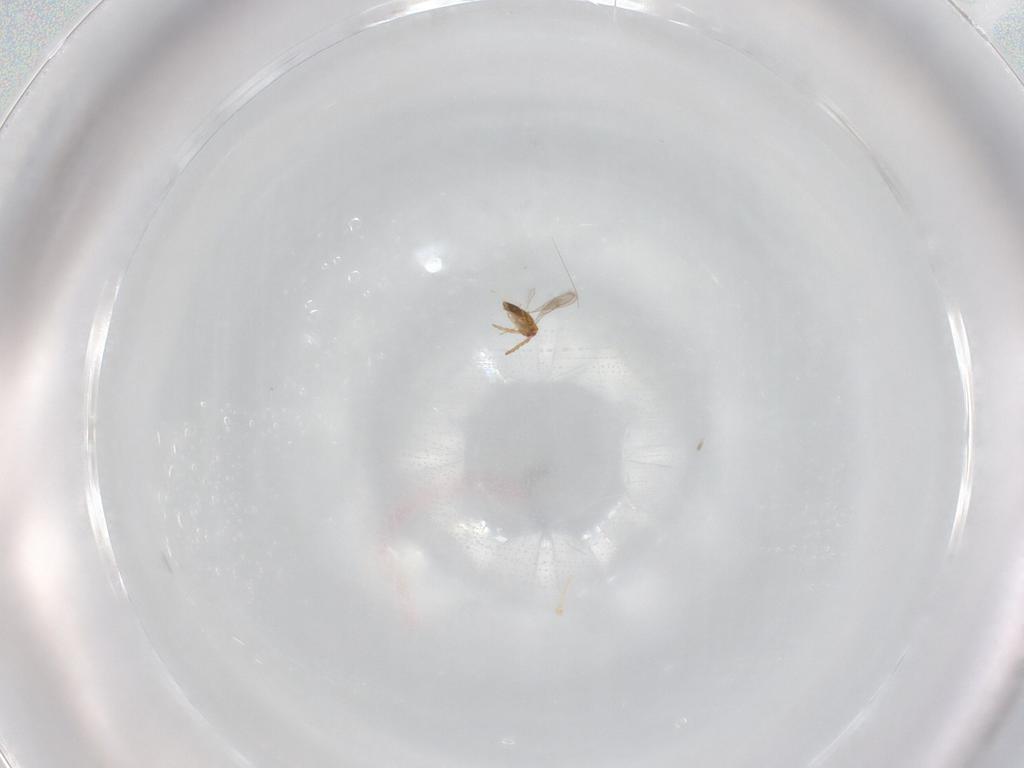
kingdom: Animalia
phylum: Arthropoda
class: Insecta
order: Hymenoptera
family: Aphelinidae
